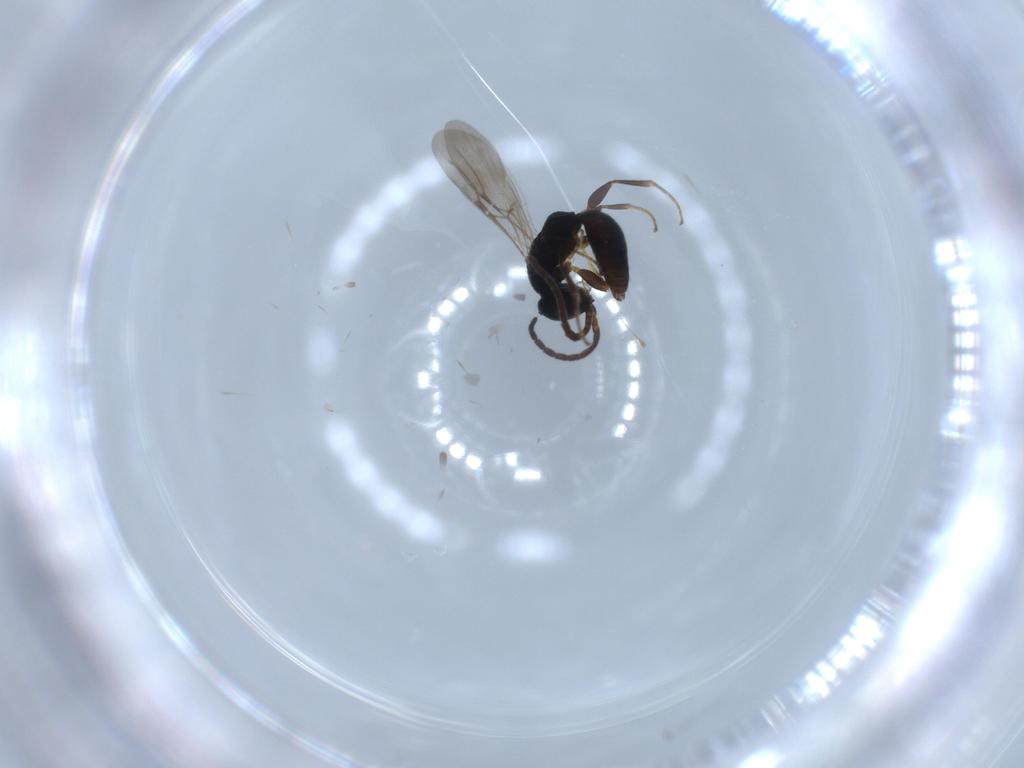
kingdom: Animalia
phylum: Arthropoda
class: Insecta
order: Hymenoptera
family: Bethylidae
